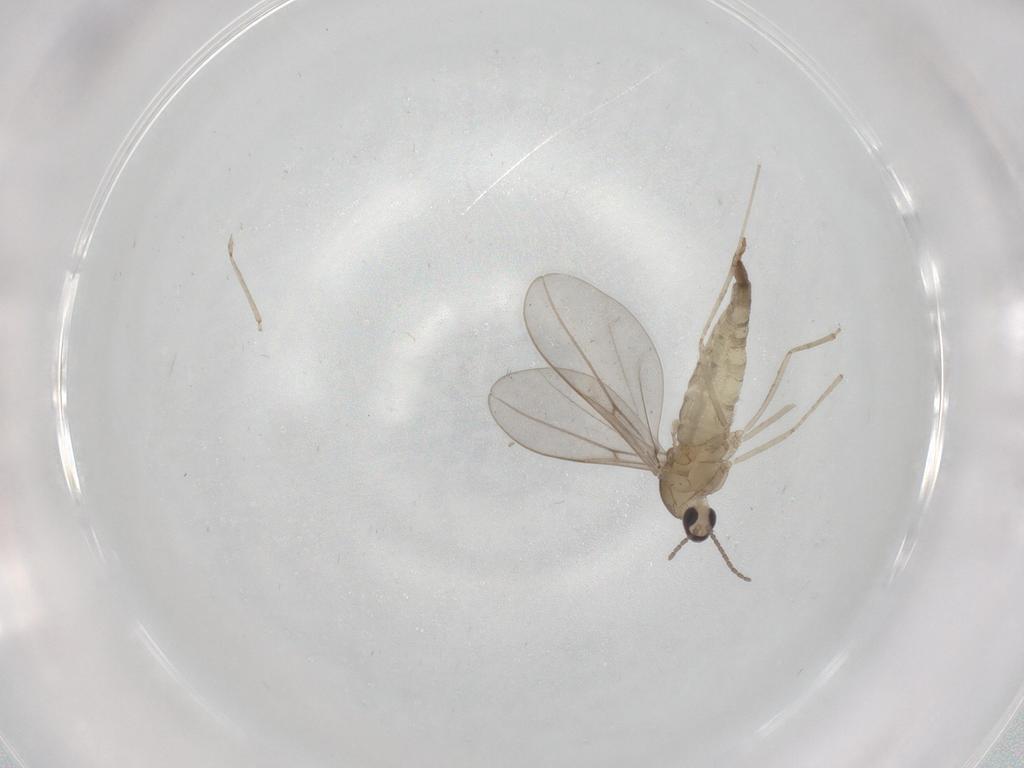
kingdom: Animalia
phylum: Arthropoda
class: Insecta
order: Diptera
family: Cecidomyiidae
